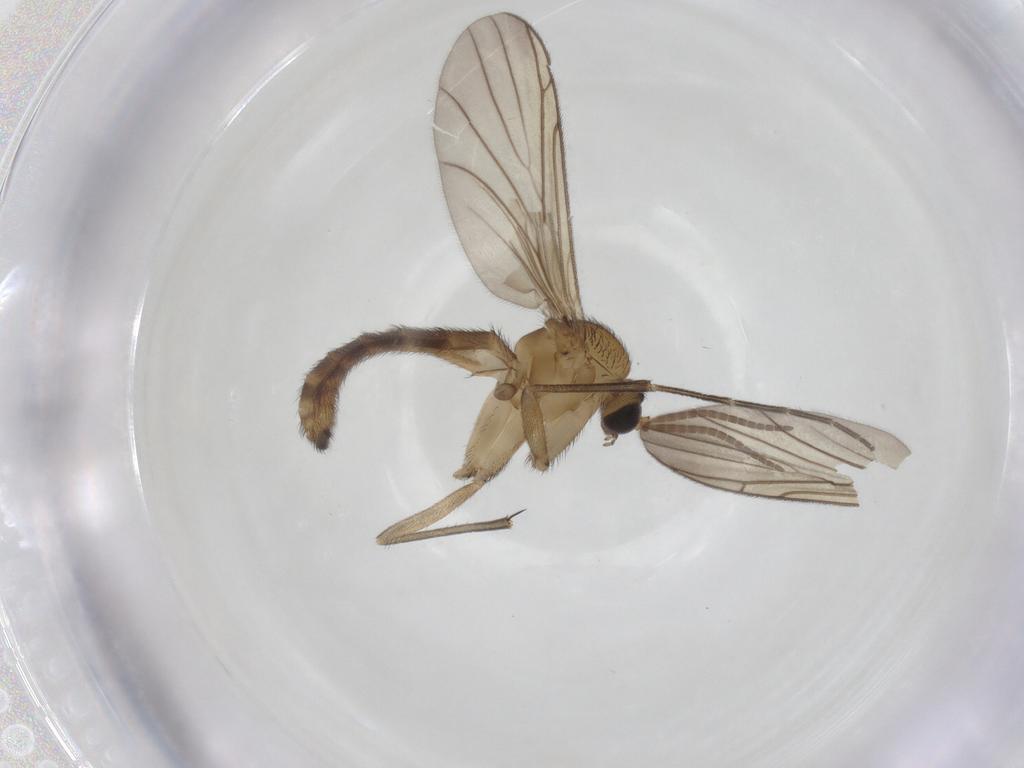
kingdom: Animalia
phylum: Arthropoda
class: Insecta
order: Diptera
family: Keroplatidae
